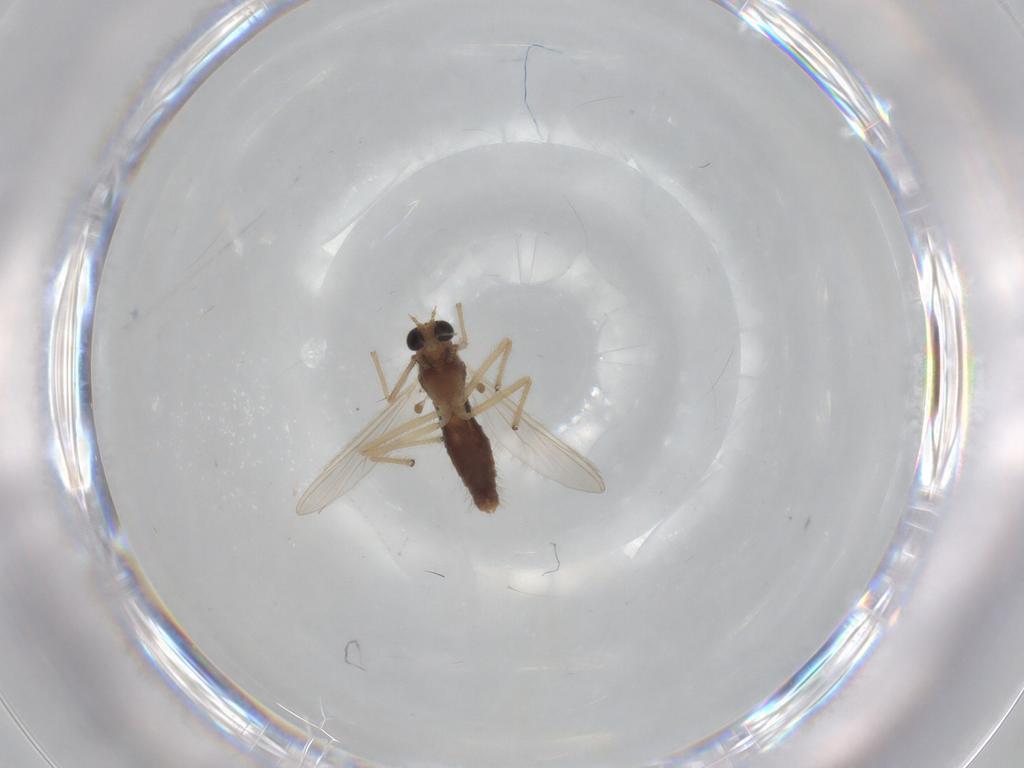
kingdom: Animalia
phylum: Arthropoda
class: Insecta
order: Diptera
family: Chironomidae
